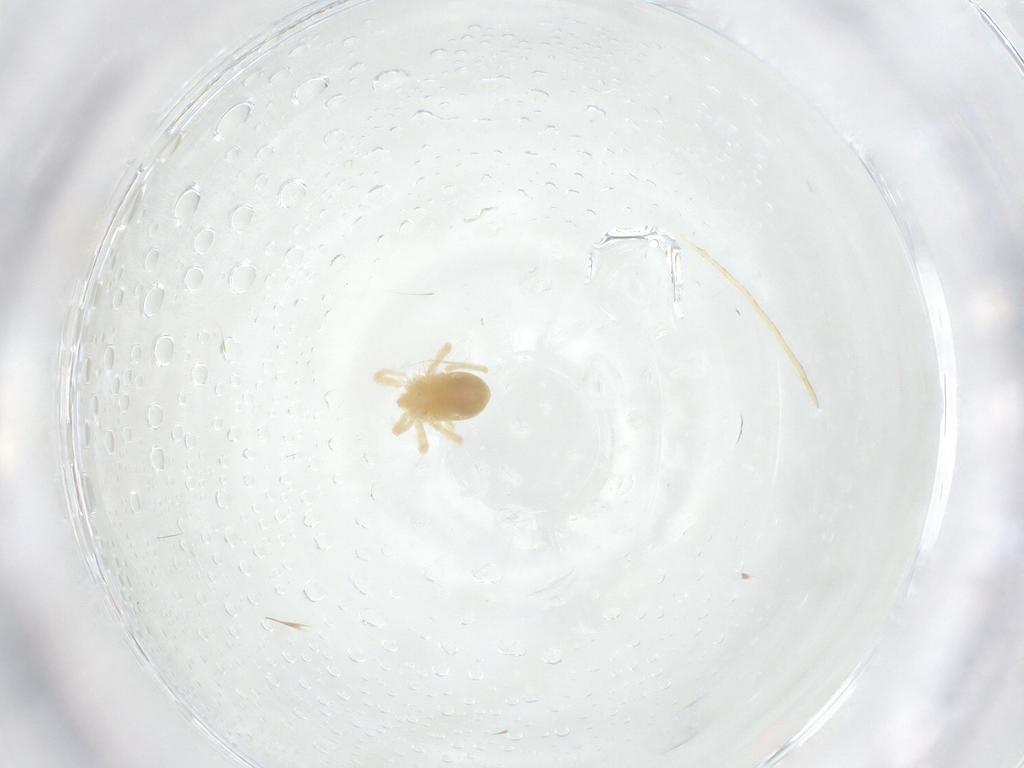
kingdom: Animalia
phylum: Arthropoda
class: Arachnida
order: Trombidiformes
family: Anystidae
